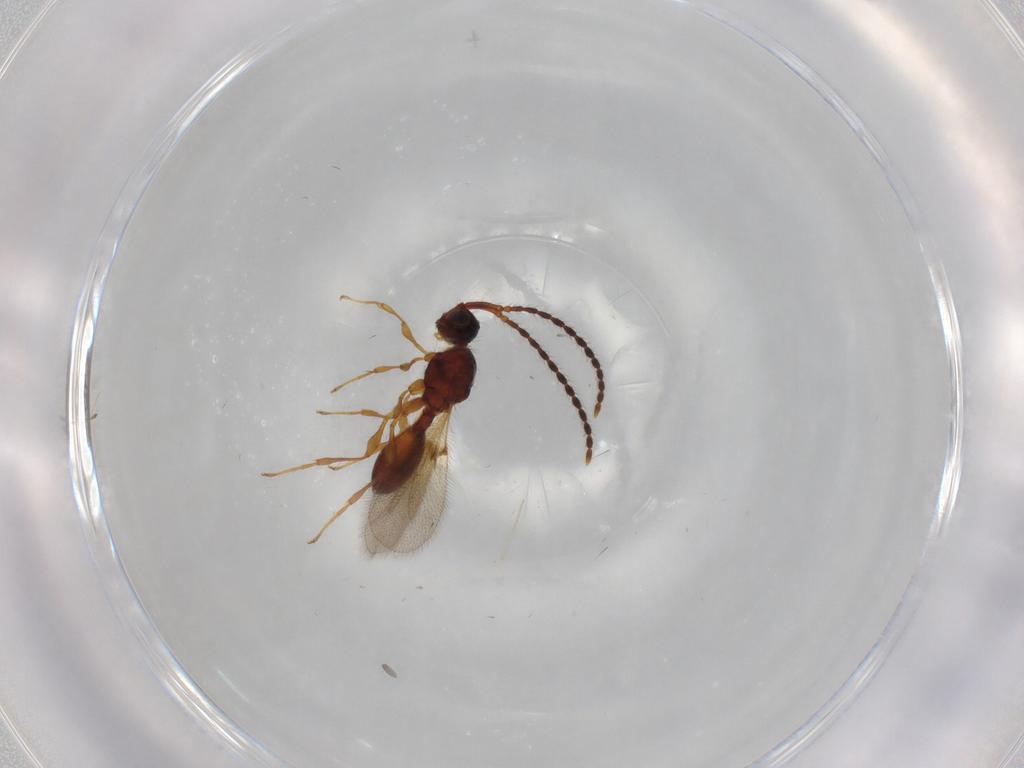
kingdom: Animalia
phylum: Arthropoda
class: Insecta
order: Hymenoptera
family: Diapriidae
